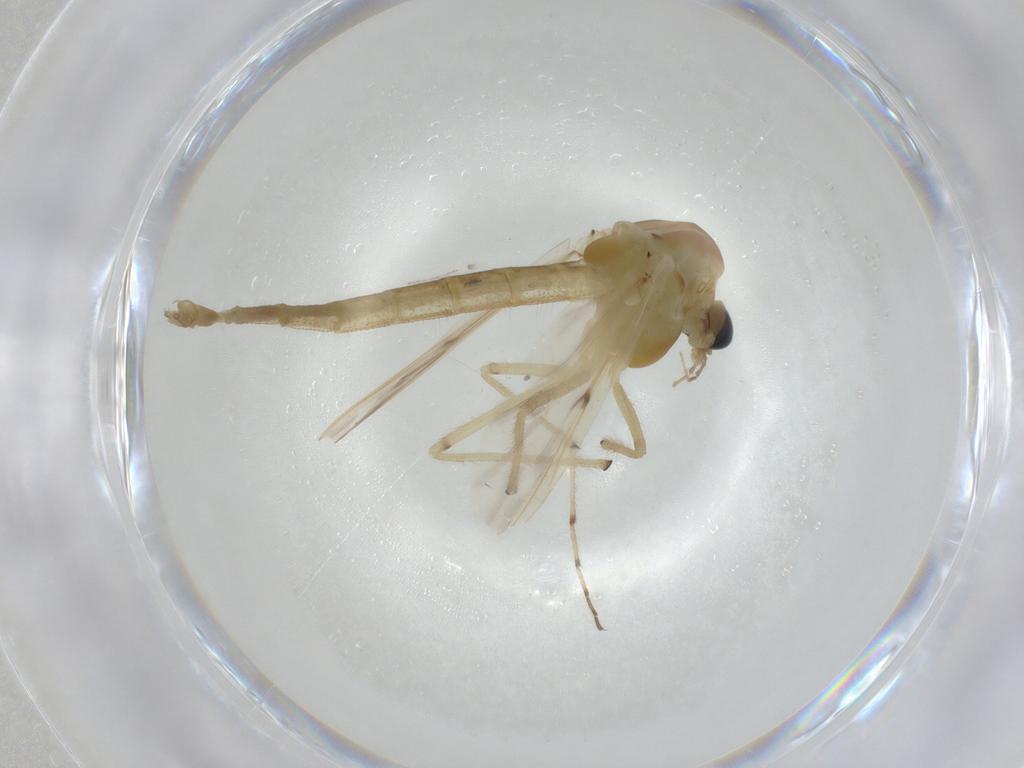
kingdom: Animalia
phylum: Arthropoda
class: Insecta
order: Diptera
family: Chironomidae
